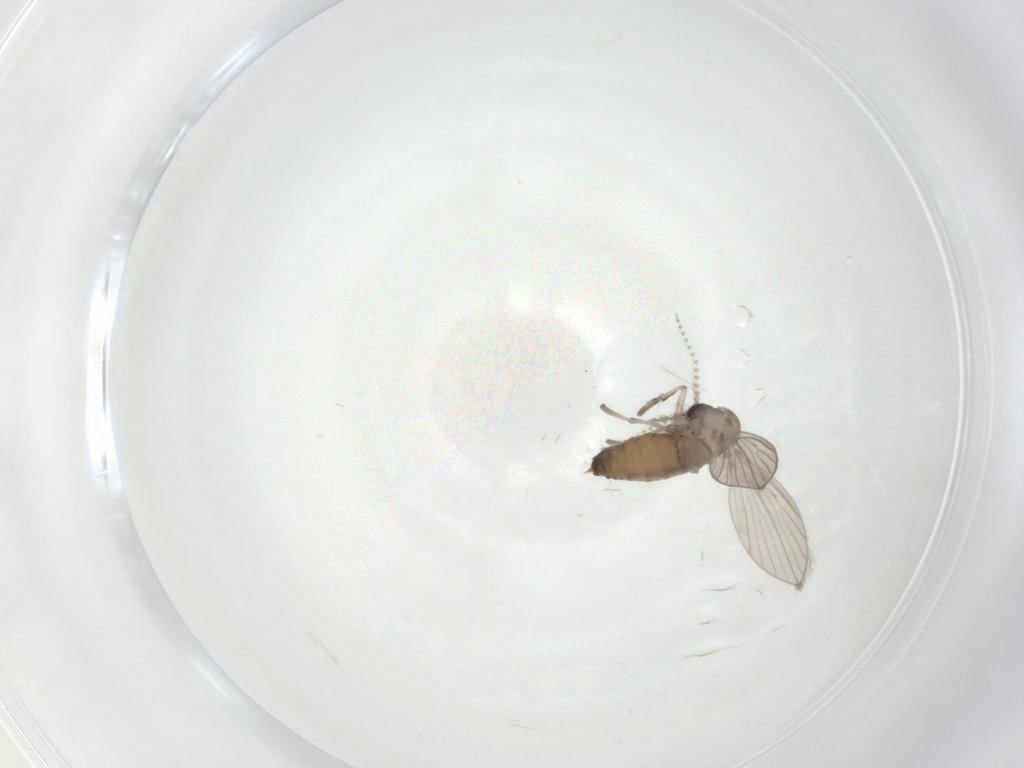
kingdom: Animalia
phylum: Arthropoda
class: Insecta
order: Diptera
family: Psychodidae
